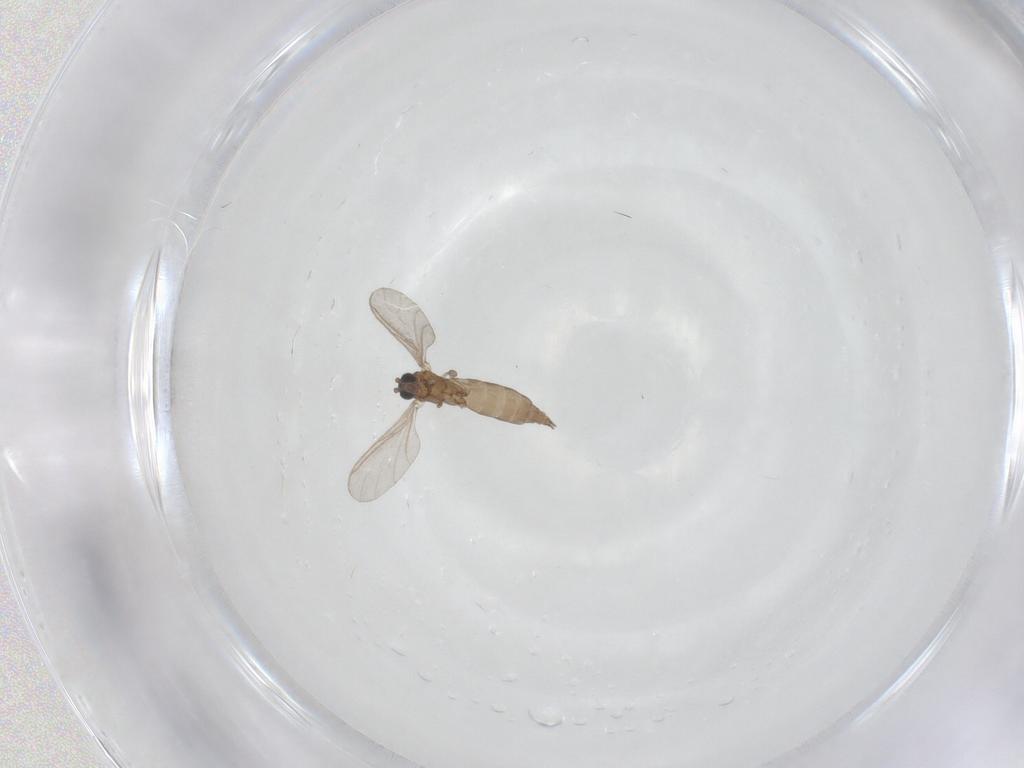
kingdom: Animalia
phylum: Arthropoda
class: Insecta
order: Diptera
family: Sciaridae
